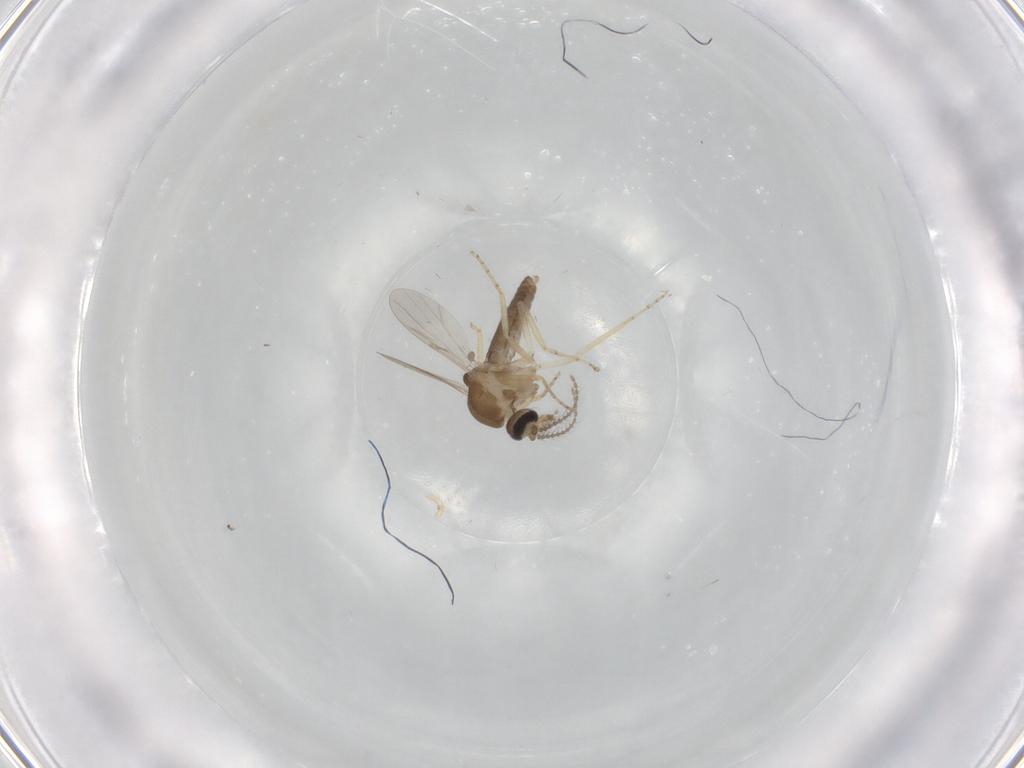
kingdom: Animalia
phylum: Arthropoda
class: Insecta
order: Diptera
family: Ceratopogonidae
